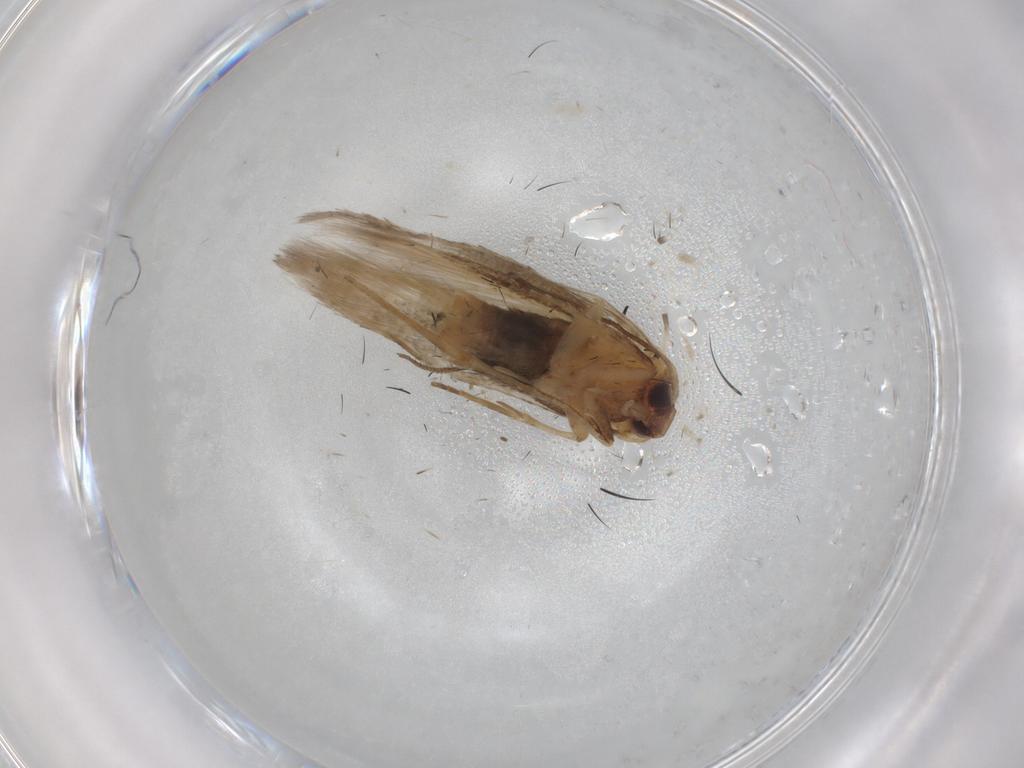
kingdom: Animalia
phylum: Arthropoda
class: Insecta
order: Lepidoptera
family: Cosmopterigidae
